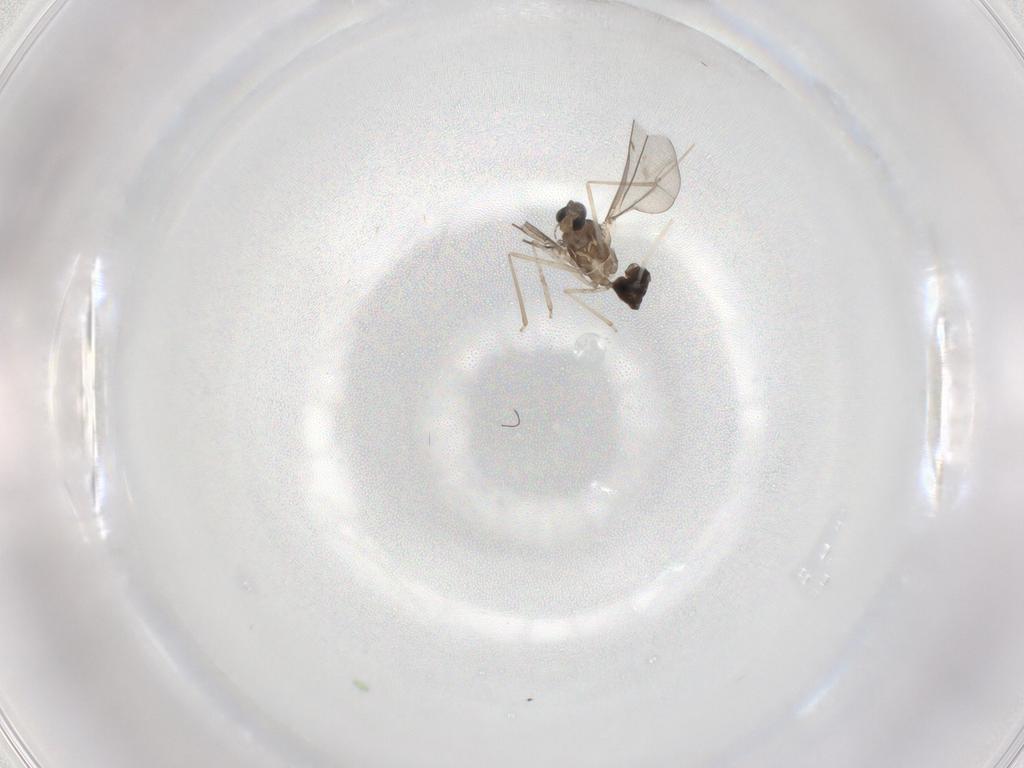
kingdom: Animalia
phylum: Arthropoda
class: Insecta
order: Diptera
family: Cecidomyiidae
